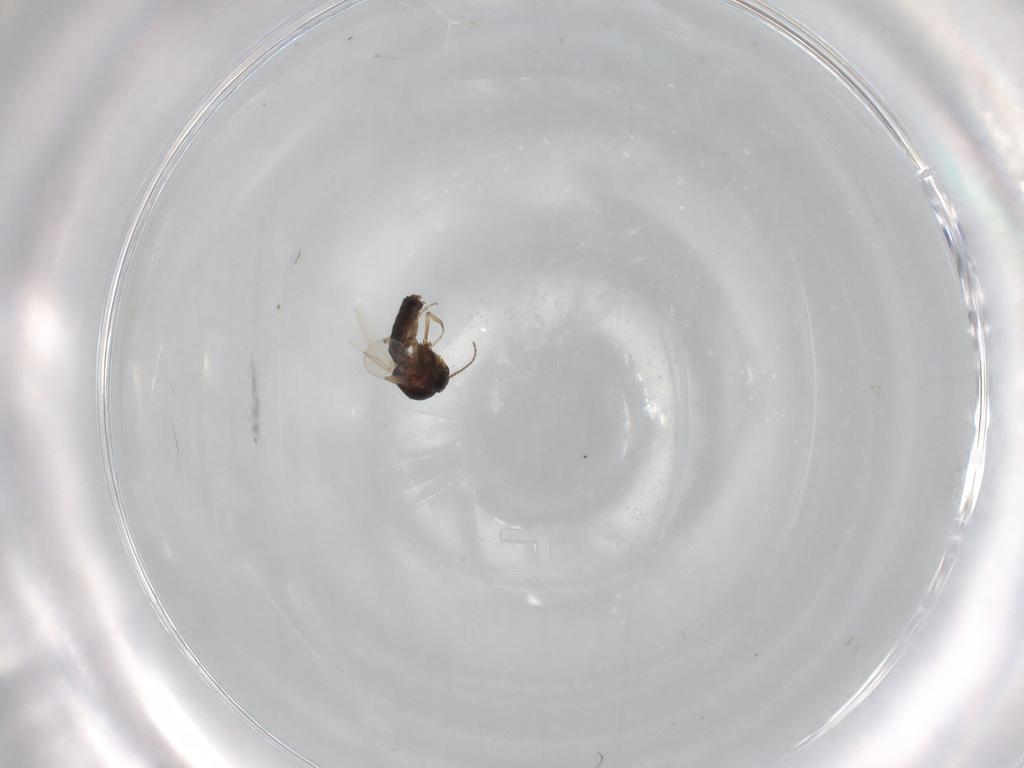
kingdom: Animalia
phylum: Arthropoda
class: Insecta
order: Diptera
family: Ceratopogonidae
